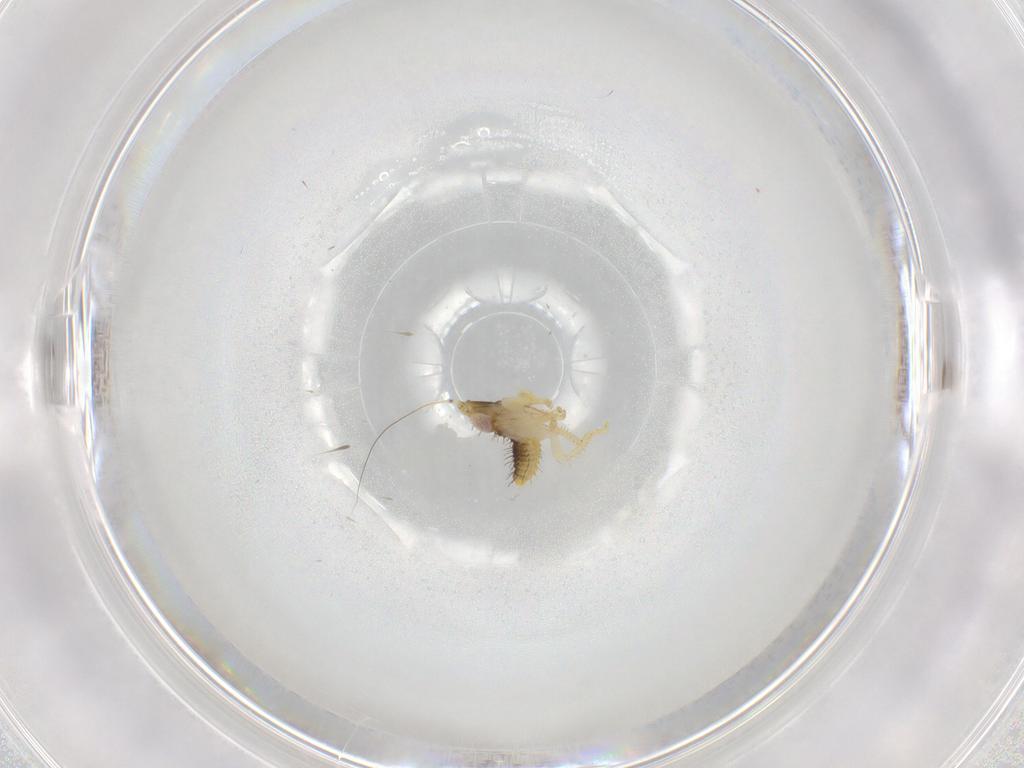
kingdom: Animalia
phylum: Arthropoda
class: Insecta
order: Hemiptera
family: Cicadellidae
